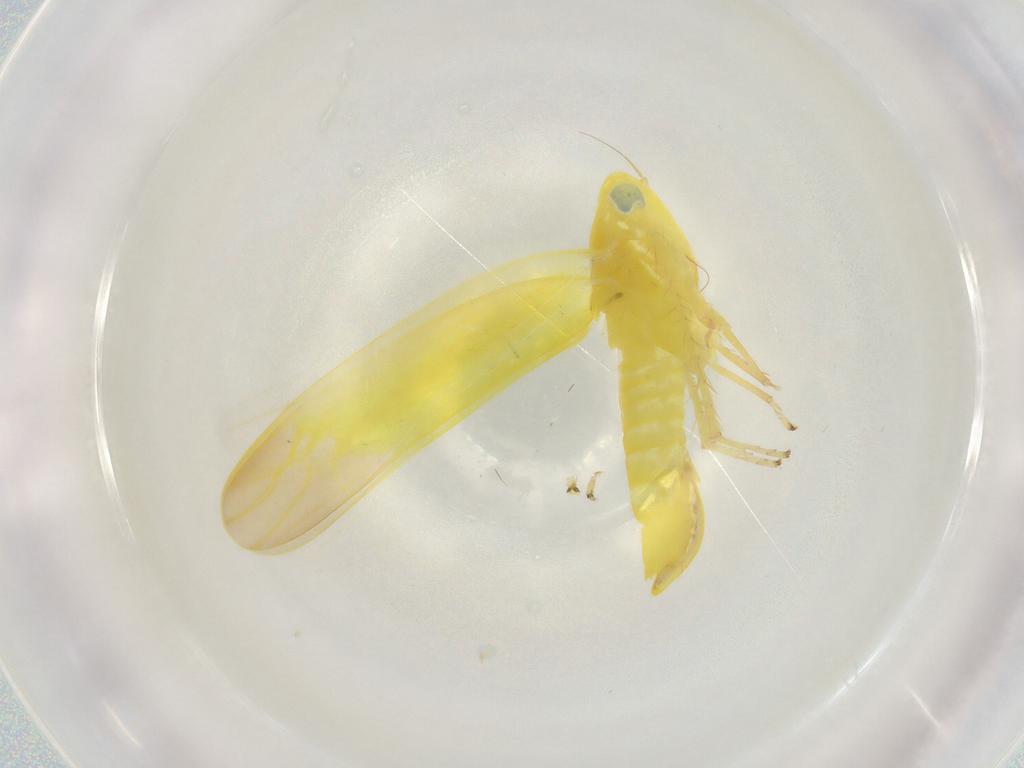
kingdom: Animalia
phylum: Arthropoda
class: Insecta
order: Hemiptera
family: Cicadellidae
